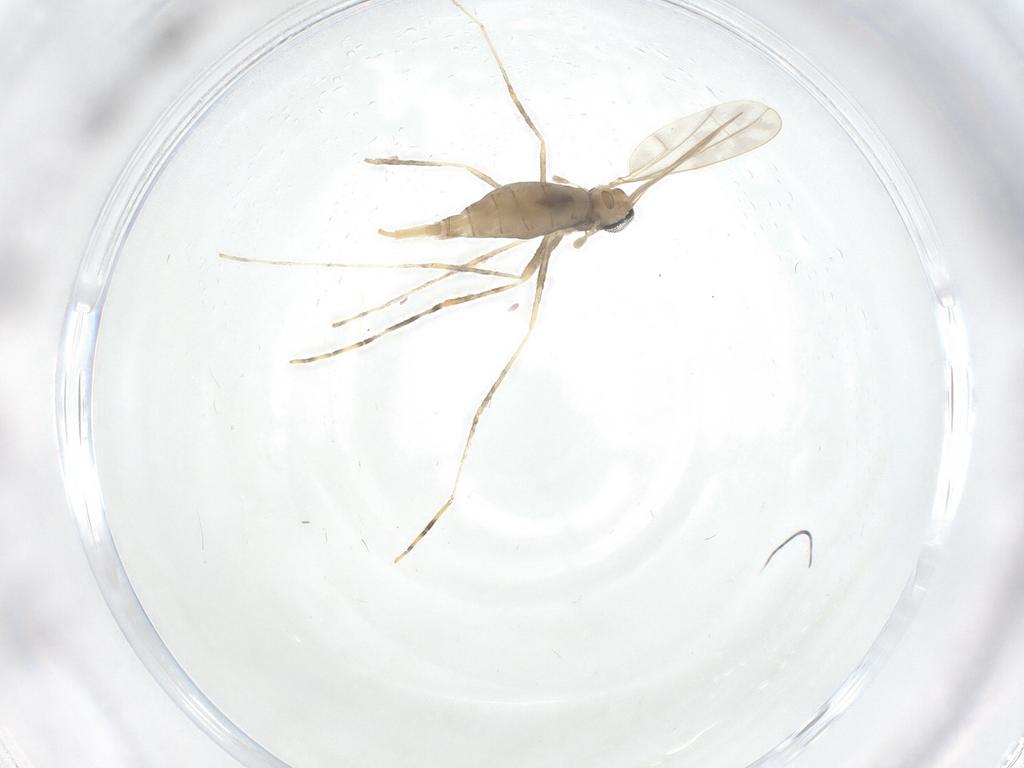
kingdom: Animalia
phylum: Arthropoda
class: Insecta
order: Diptera
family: Cecidomyiidae
